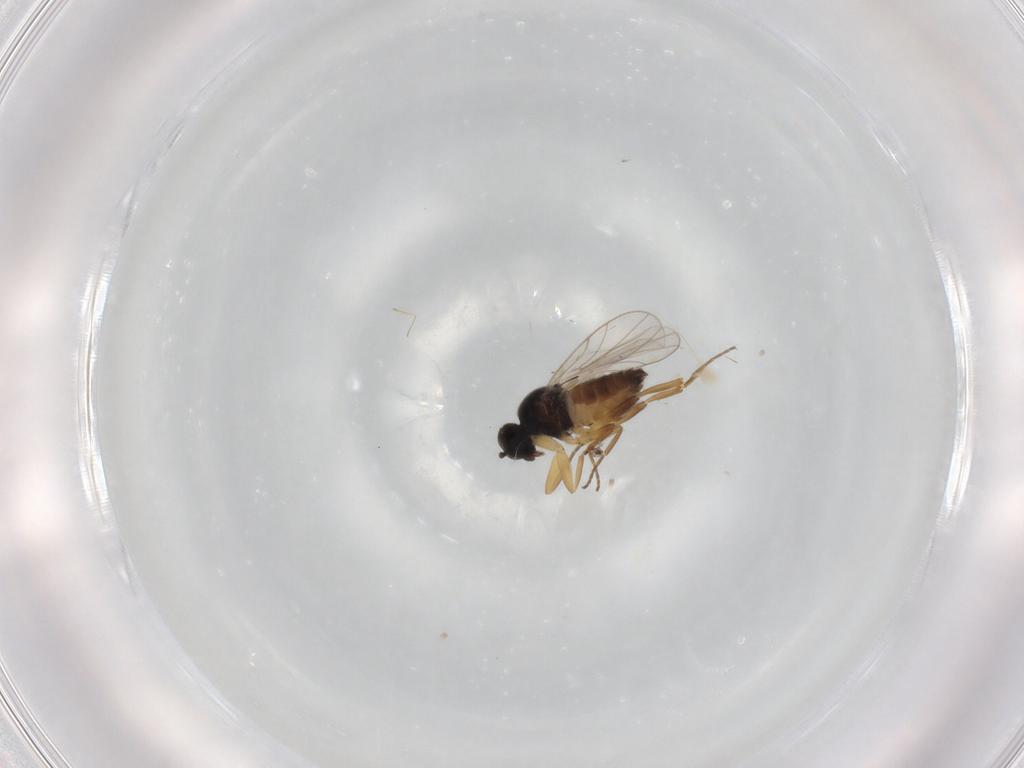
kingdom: Animalia
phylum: Arthropoda
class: Insecta
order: Diptera
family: Hybotidae
